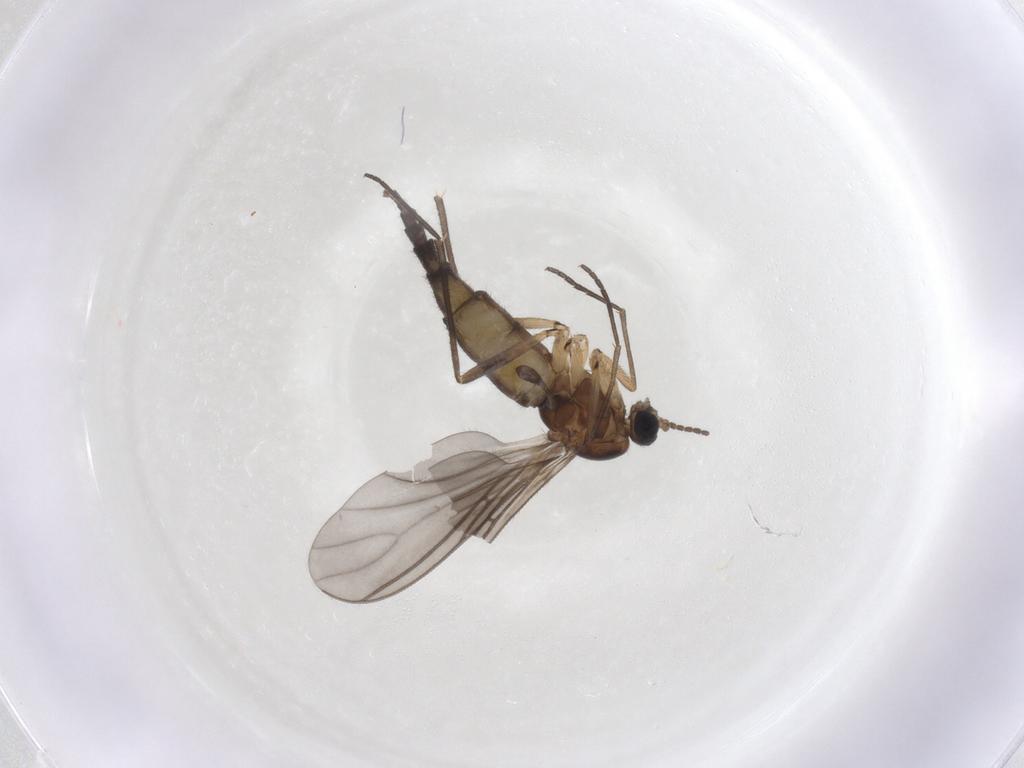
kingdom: Animalia
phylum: Arthropoda
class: Insecta
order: Diptera
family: Sciaridae
